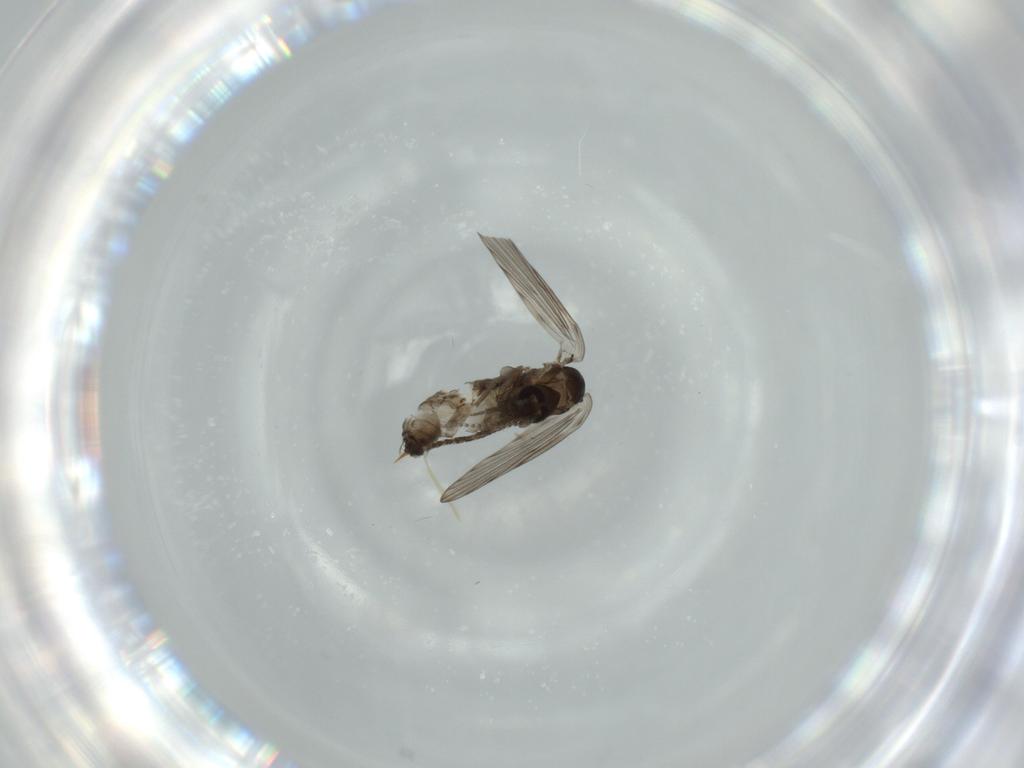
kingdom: Animalia
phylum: Arthropoda
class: Insecta
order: Diptera
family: Psychodidae
